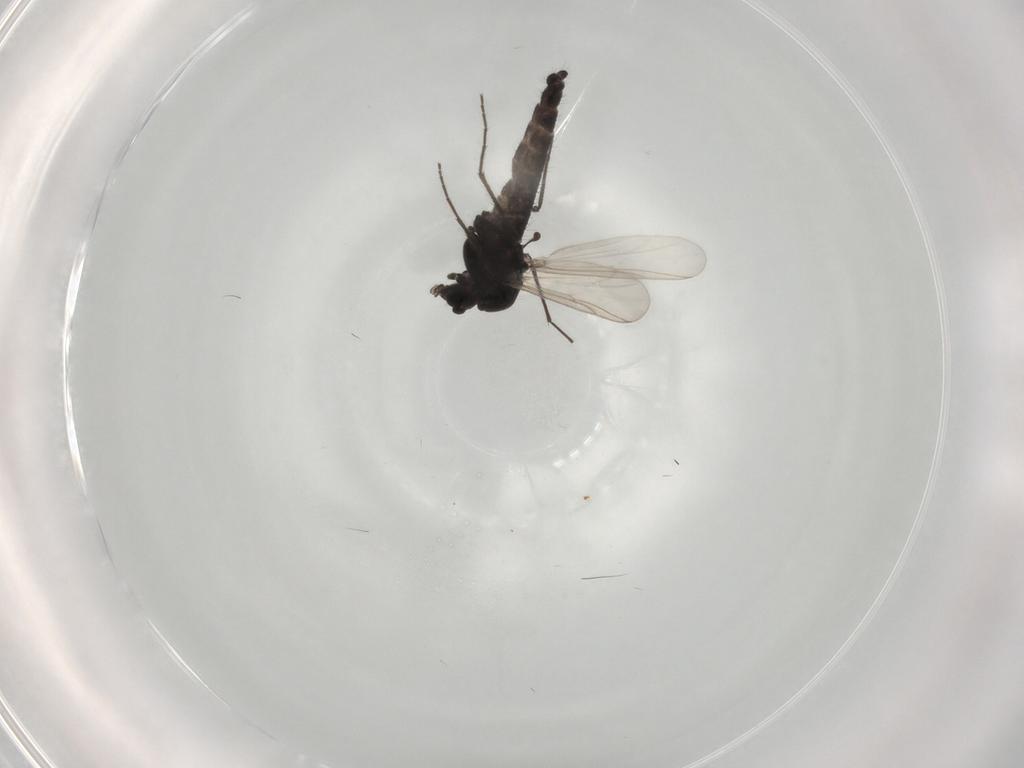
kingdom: Animalia
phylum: Arthropoda
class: Insecta
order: Diptera
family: Chironomidae
